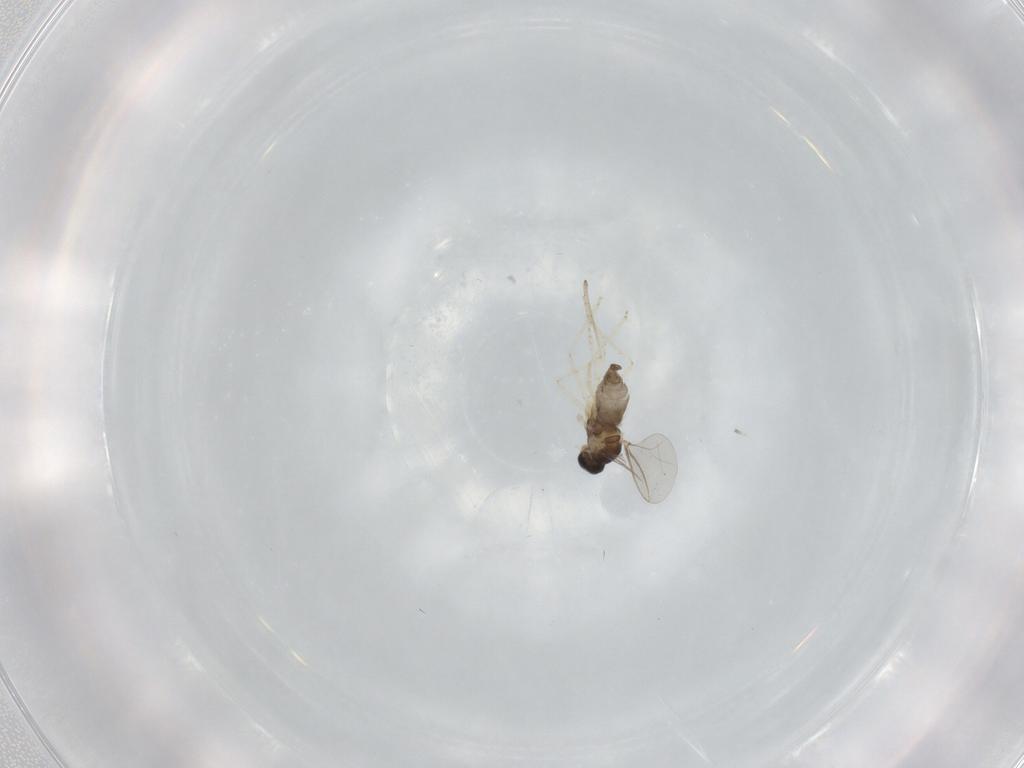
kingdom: Animalia
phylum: Arthropoda
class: Insecta
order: Diptera
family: Cecidomyiidae
